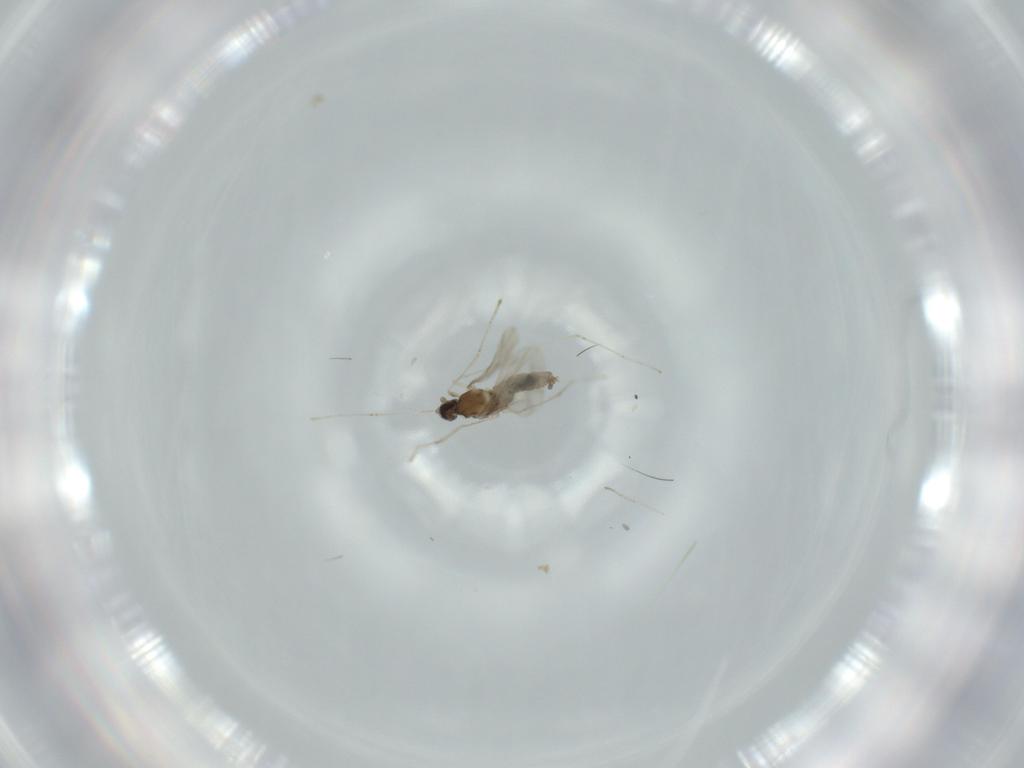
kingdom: Animalia
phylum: Arthropoda
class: Insecta
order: Diptera
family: Cecidomyiidae
